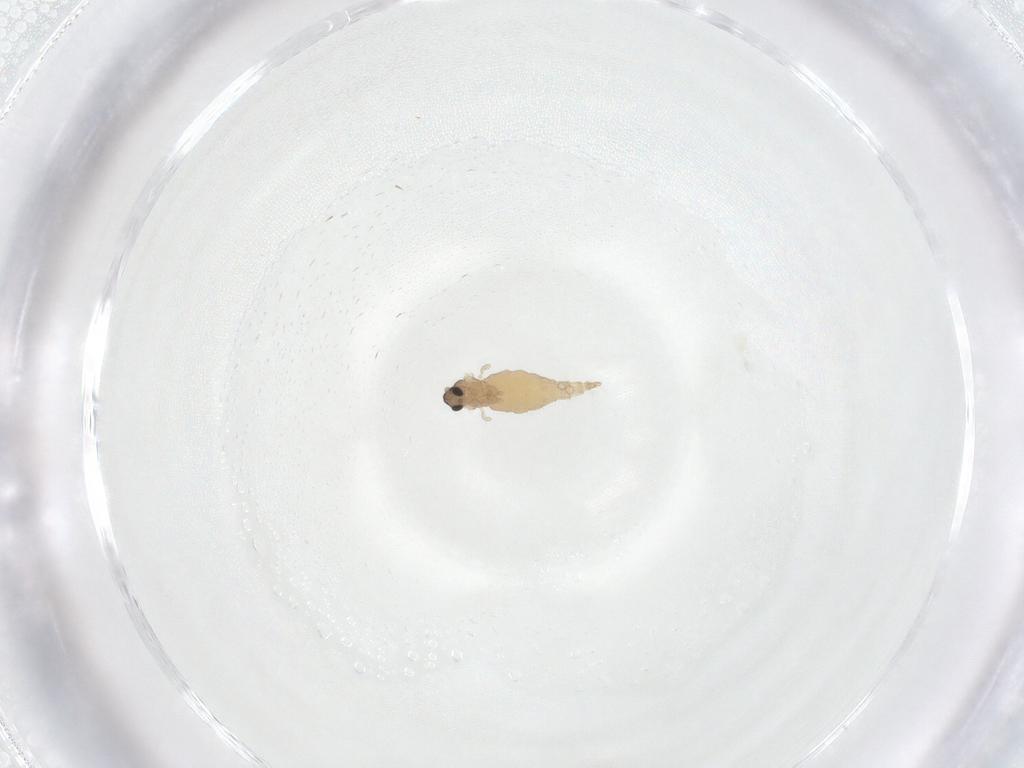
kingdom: Animalia
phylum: Arthropoda
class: Insecta
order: Diptera
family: Cecidomyiidae
